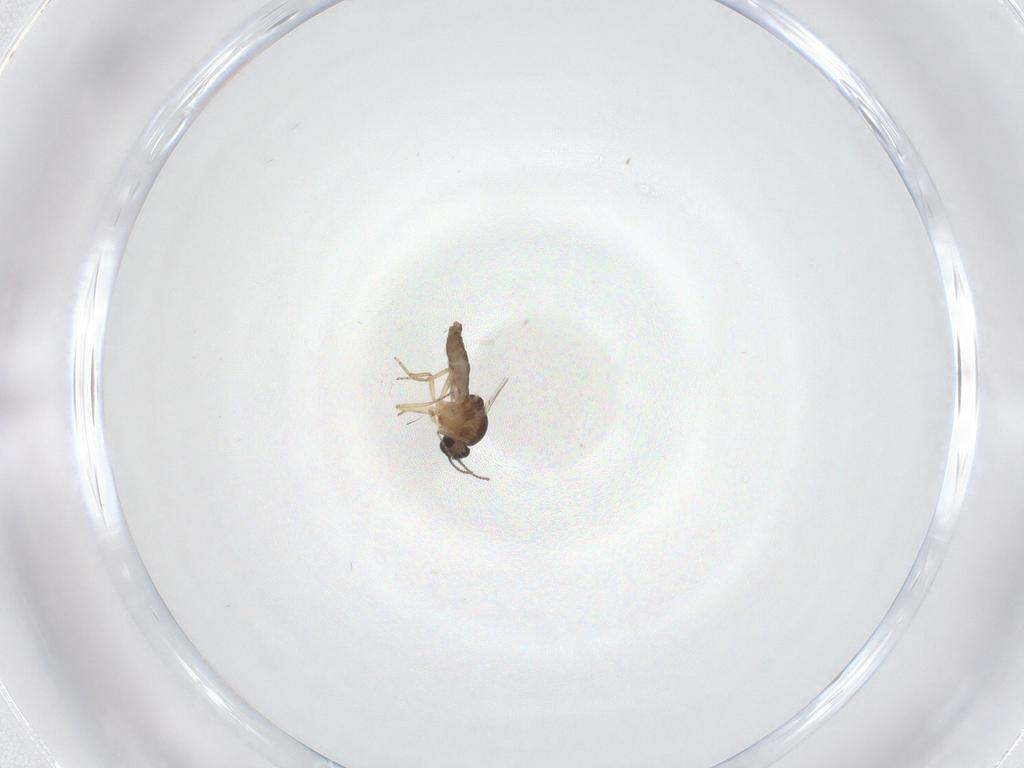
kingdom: Animalia
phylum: Arthropoda
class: Insecta
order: Diptera
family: Ceratopogonidae
